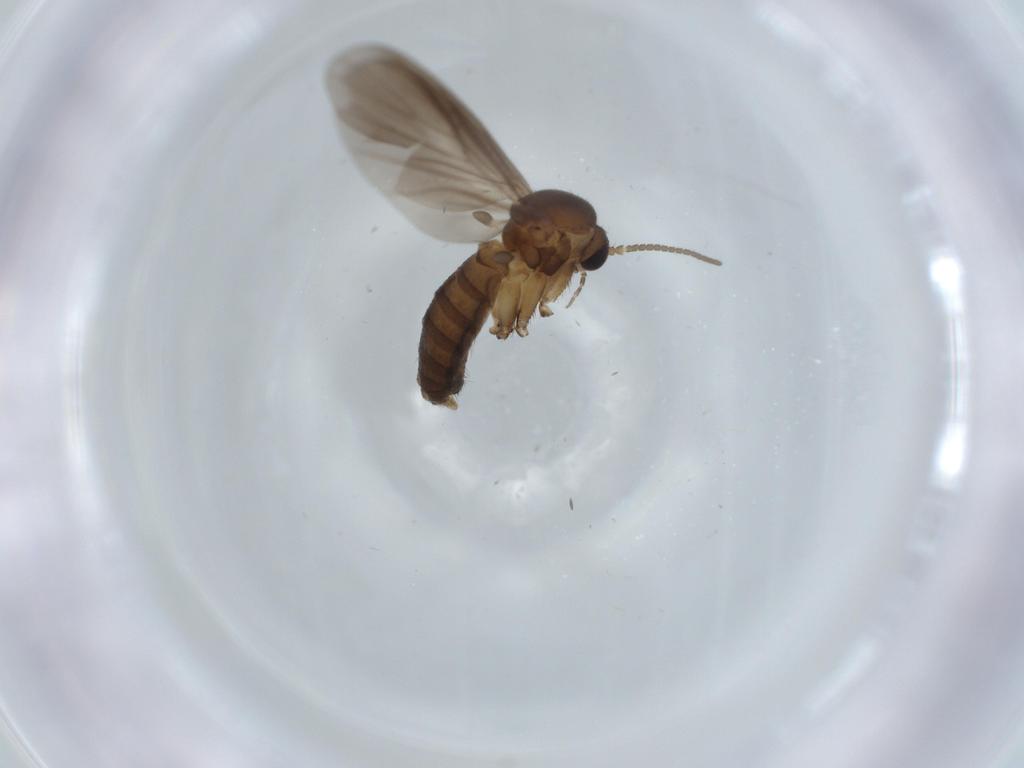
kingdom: Animalia
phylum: Arthropoda
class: Insecta
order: Diptera
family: Mycetophilidae
